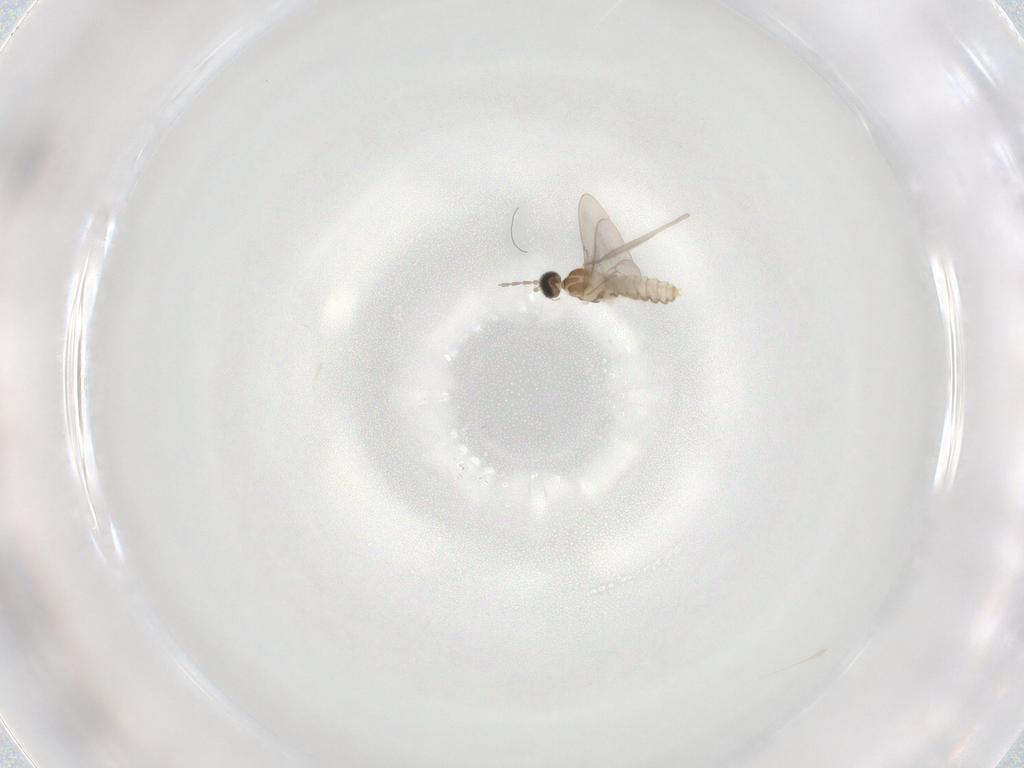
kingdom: Animalia
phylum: Arthropoda
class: Insecta
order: Diptera
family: Cecidomyiidae
